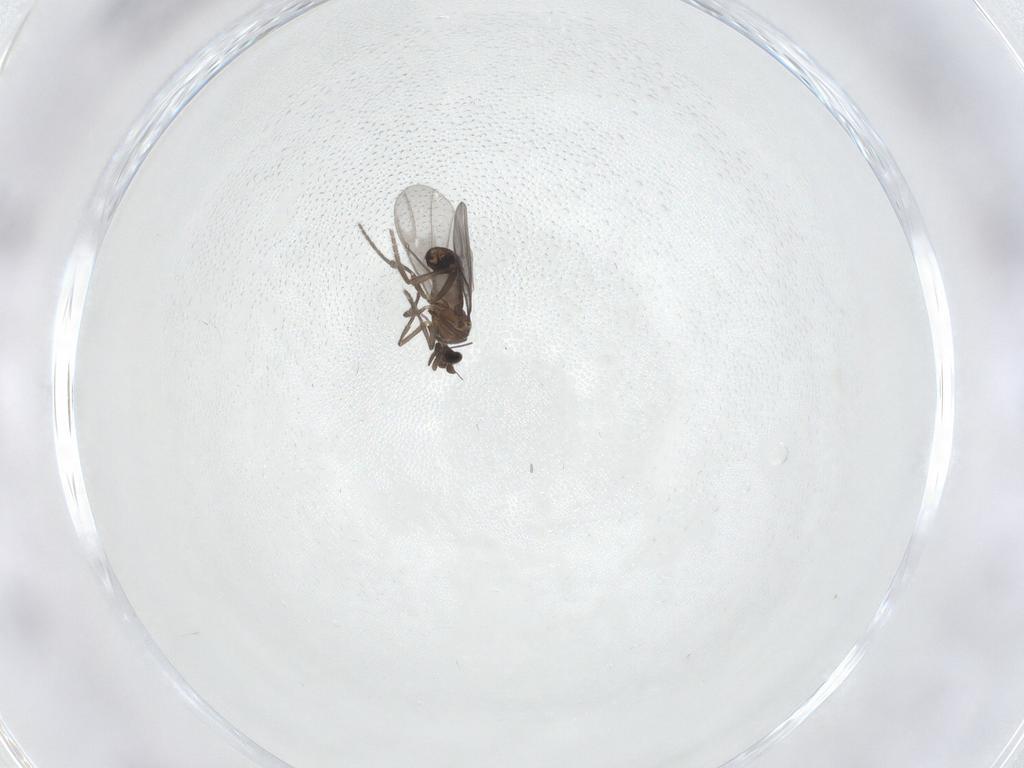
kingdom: Animalia
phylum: Arthropoda
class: Insecta
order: Diptera
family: Phoridae
